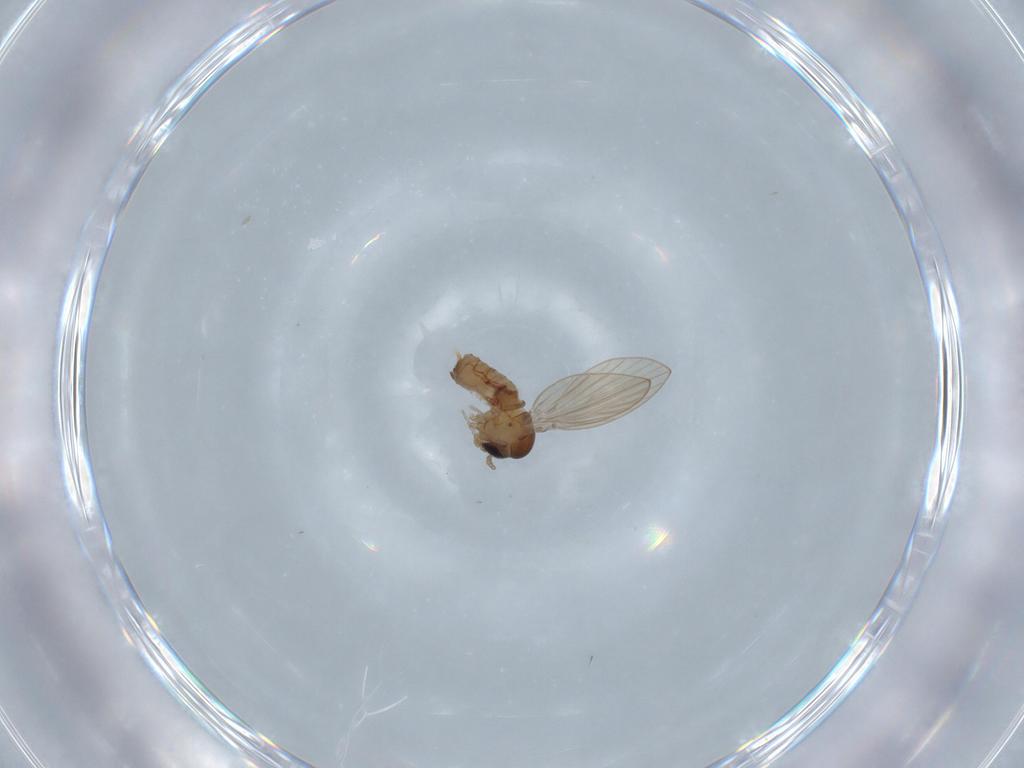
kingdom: Animalia
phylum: Arthropoda
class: Insecta
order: Diptera
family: Psychodidae
